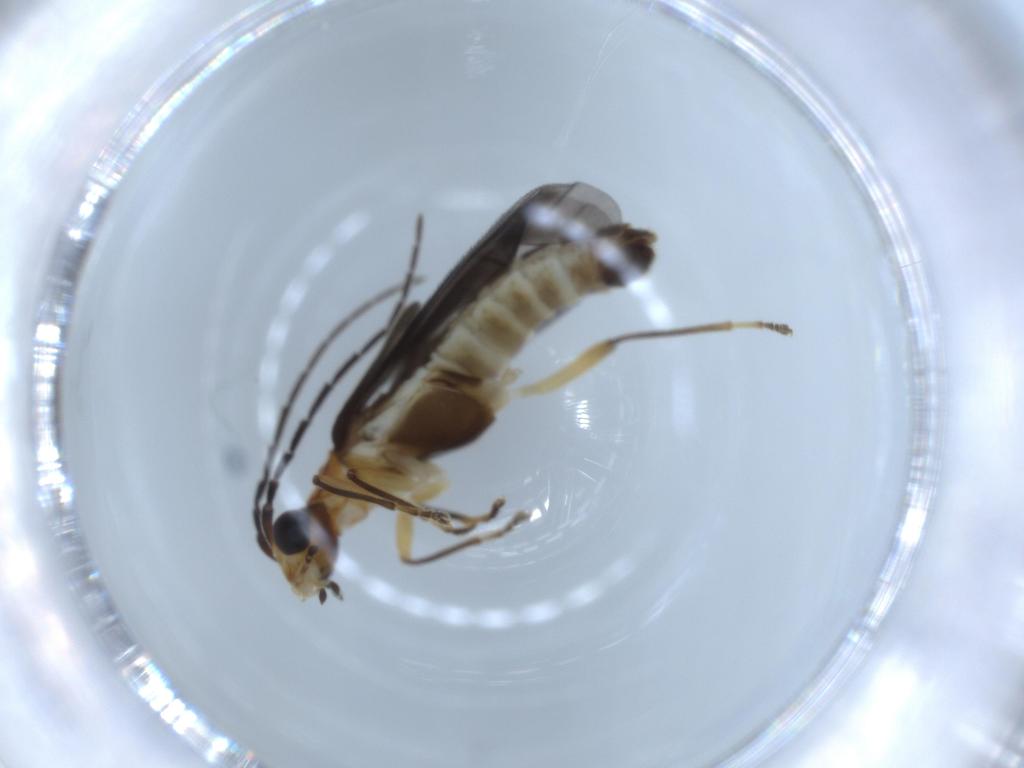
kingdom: Animalia
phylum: Arthropoda
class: Insecta
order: Coleoptera
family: Cantharidae
